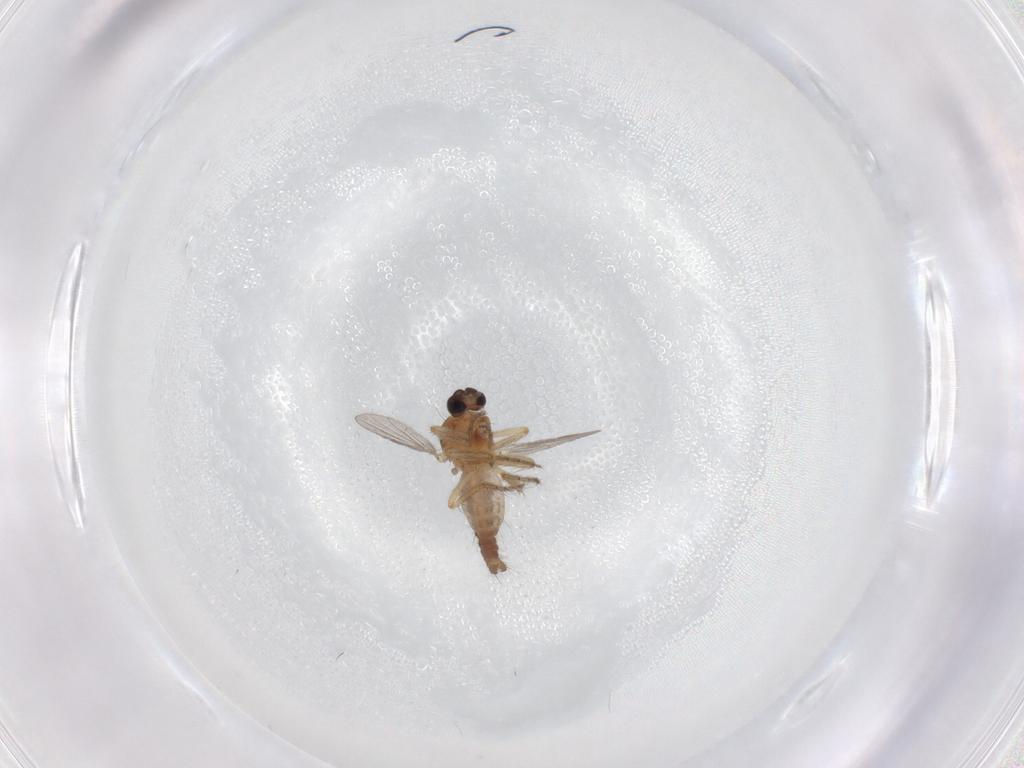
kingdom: Animalia
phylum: Arthropoda
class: Insecta
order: Diptera
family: Ceratopogonidae
